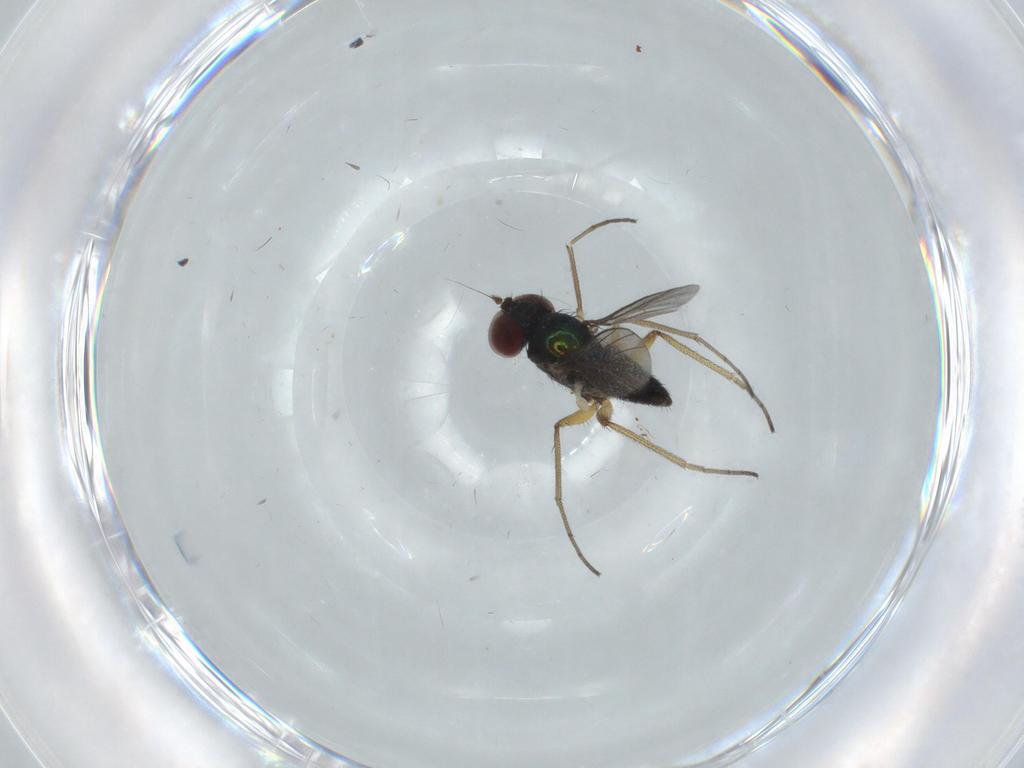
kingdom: Animalia
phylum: Arthropoda
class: Insecta
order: Diptera
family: Dolichopodidae
